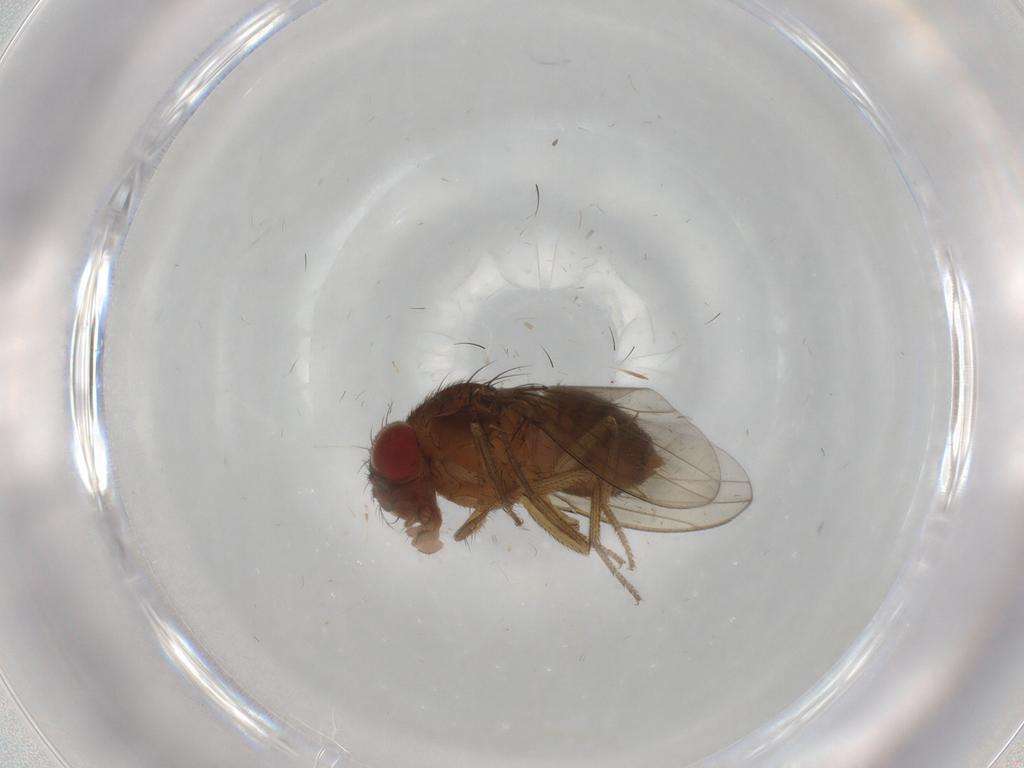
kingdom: Animalia
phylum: Arthropoda
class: Insecta
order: Diptera
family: Drosophilidae
